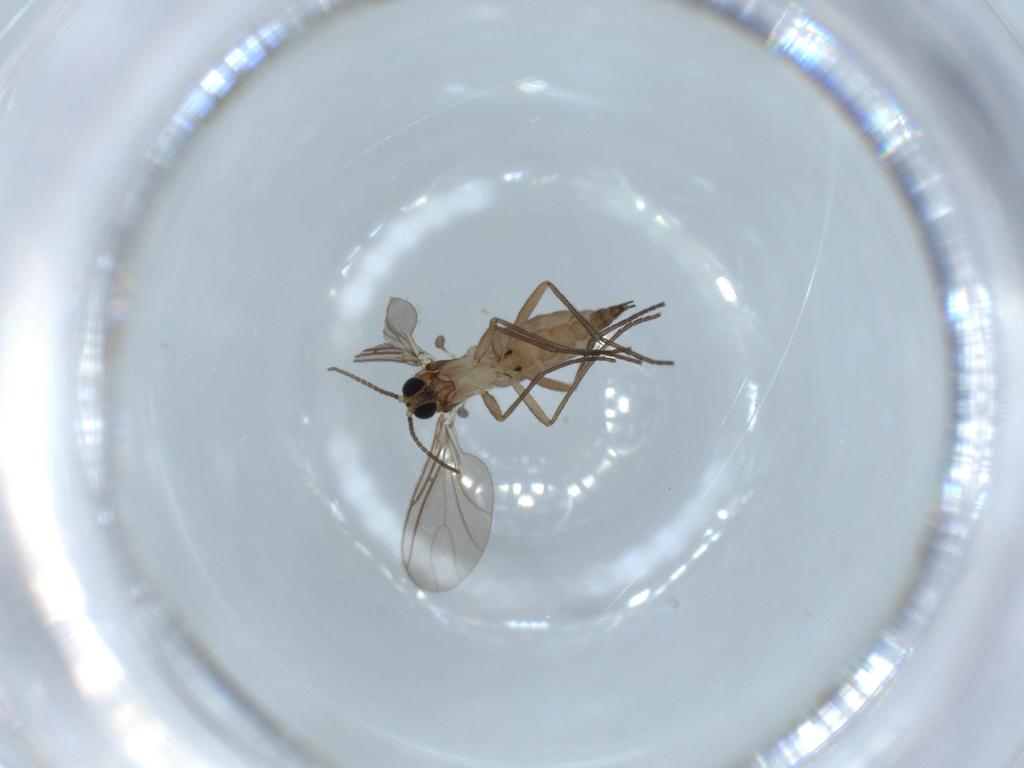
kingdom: Animalia
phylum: Arthropoda
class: Insecta
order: Diptera
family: Sciaridae
